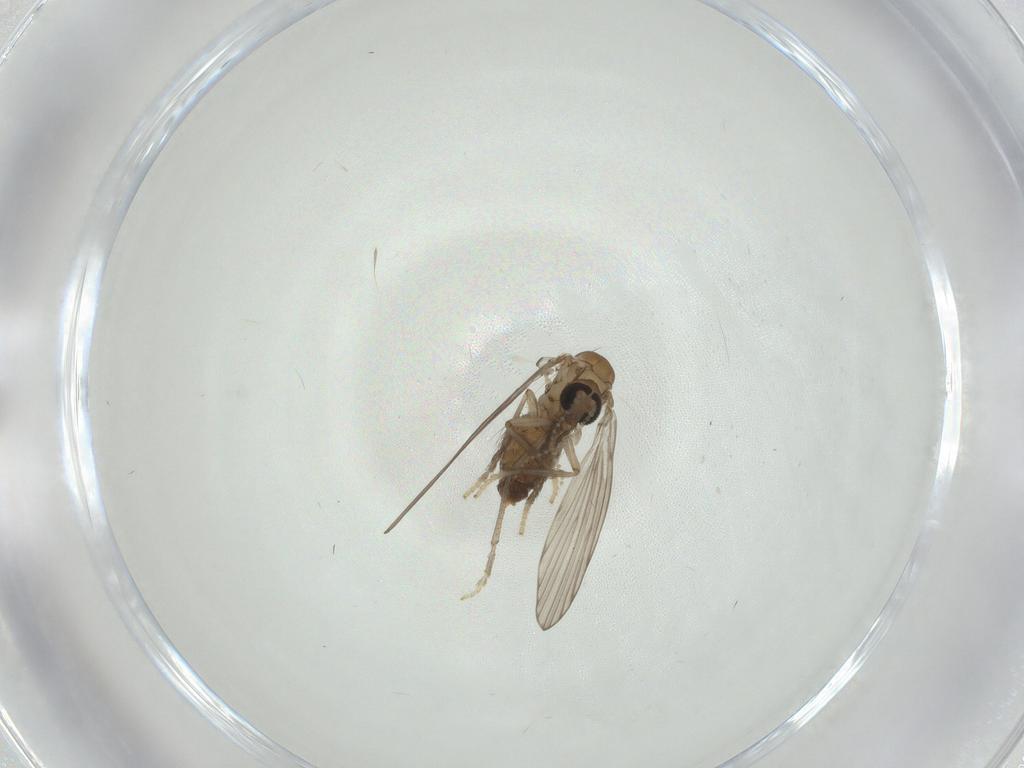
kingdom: Animalia
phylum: Arthropoda
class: Insecta
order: Diptera
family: Psychodidae
